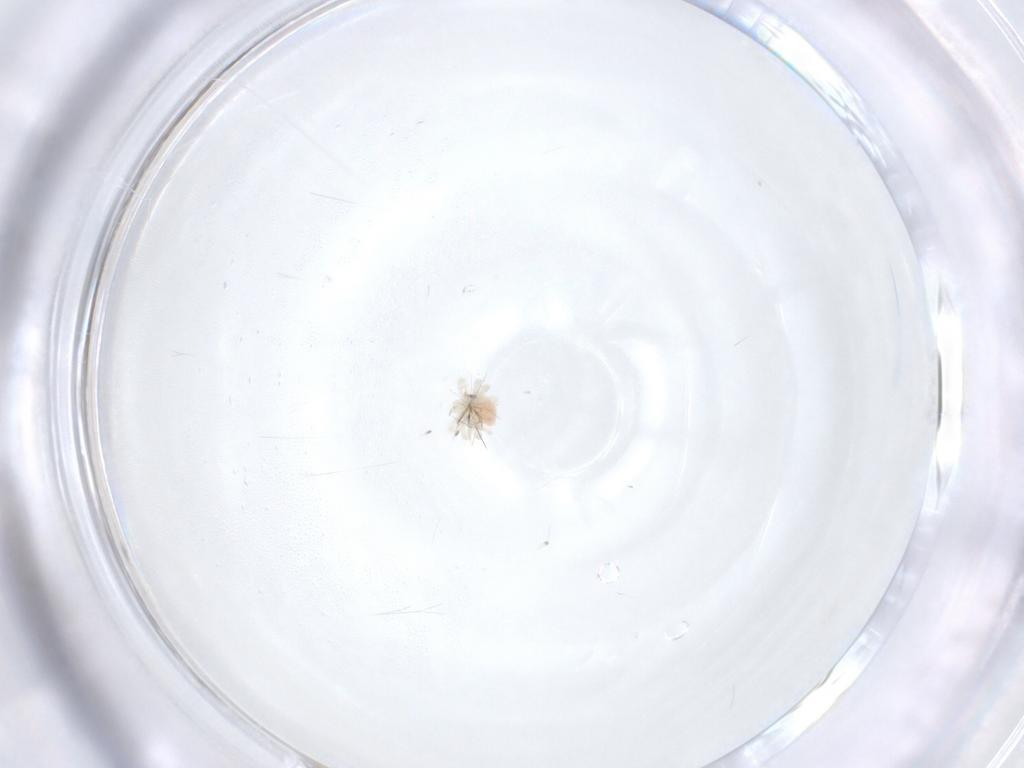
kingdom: Animalia
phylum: Arthropoda
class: Arachnida
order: Trombidiformes
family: Anystidae
